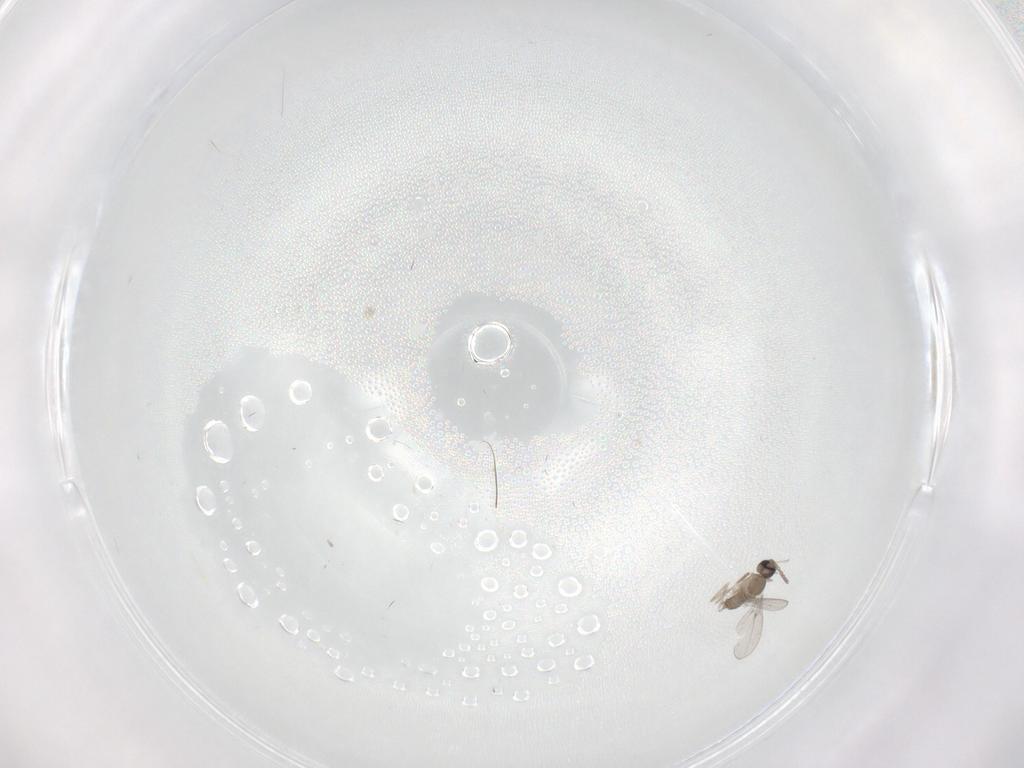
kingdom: Animalia
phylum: Arthropoda
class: Insecta
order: Diptera
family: Cecidomyiidae
